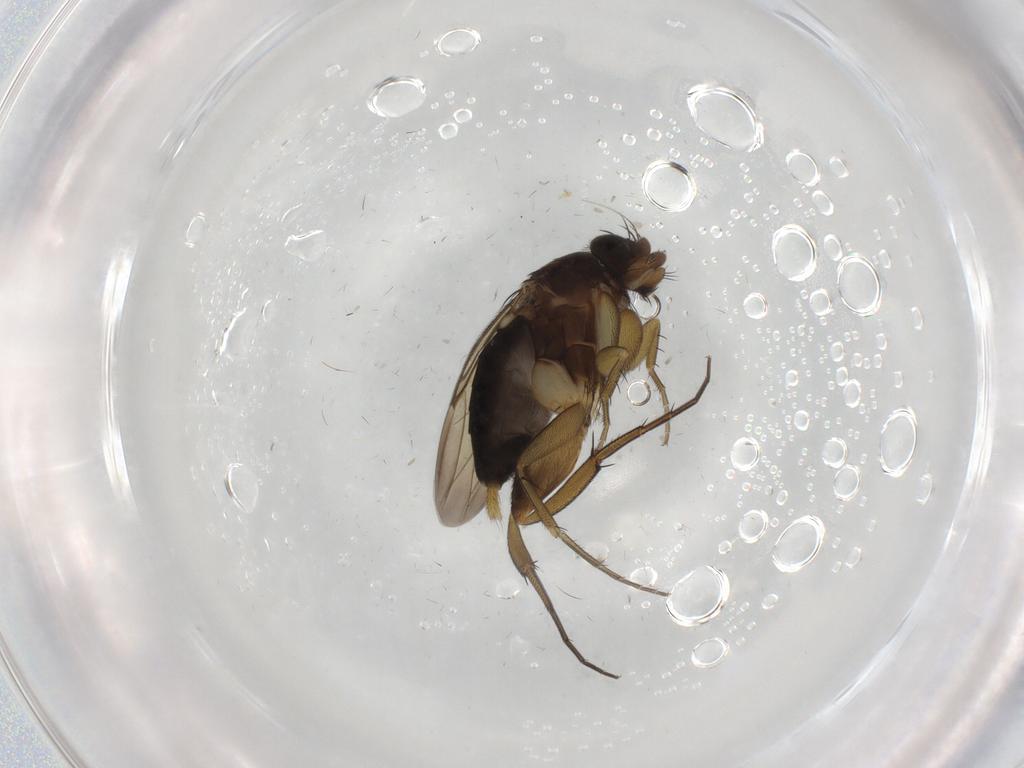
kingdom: Animalia
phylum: Arthropoda
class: Insecta
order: Diptera
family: Phoridae
